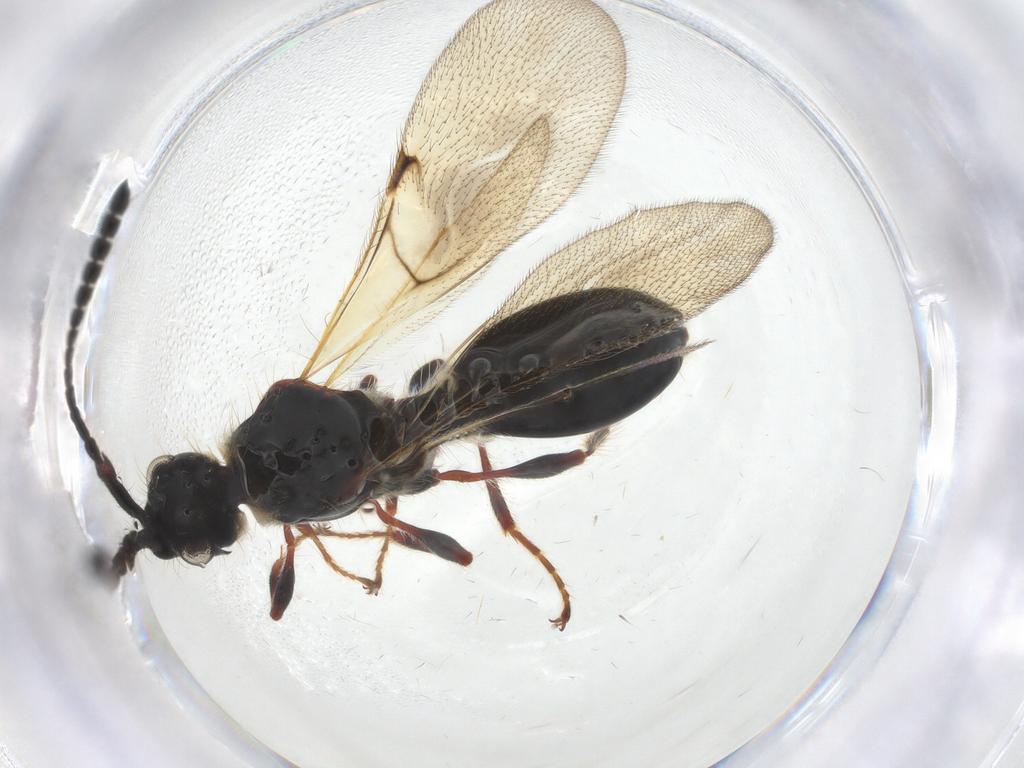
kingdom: Animalia
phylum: Arthropoda
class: Insecta
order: Hymenoptera
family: Diapriidae
